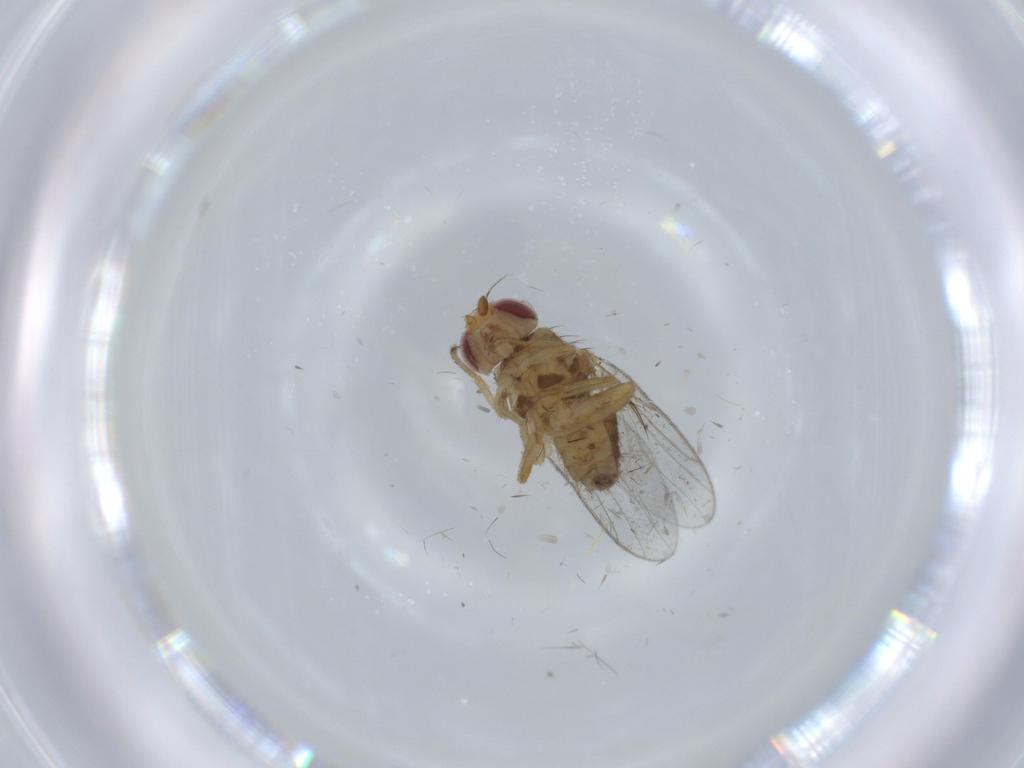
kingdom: Animalia
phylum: Arthropoda
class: Insecta
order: Diptera
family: Chloropidae
